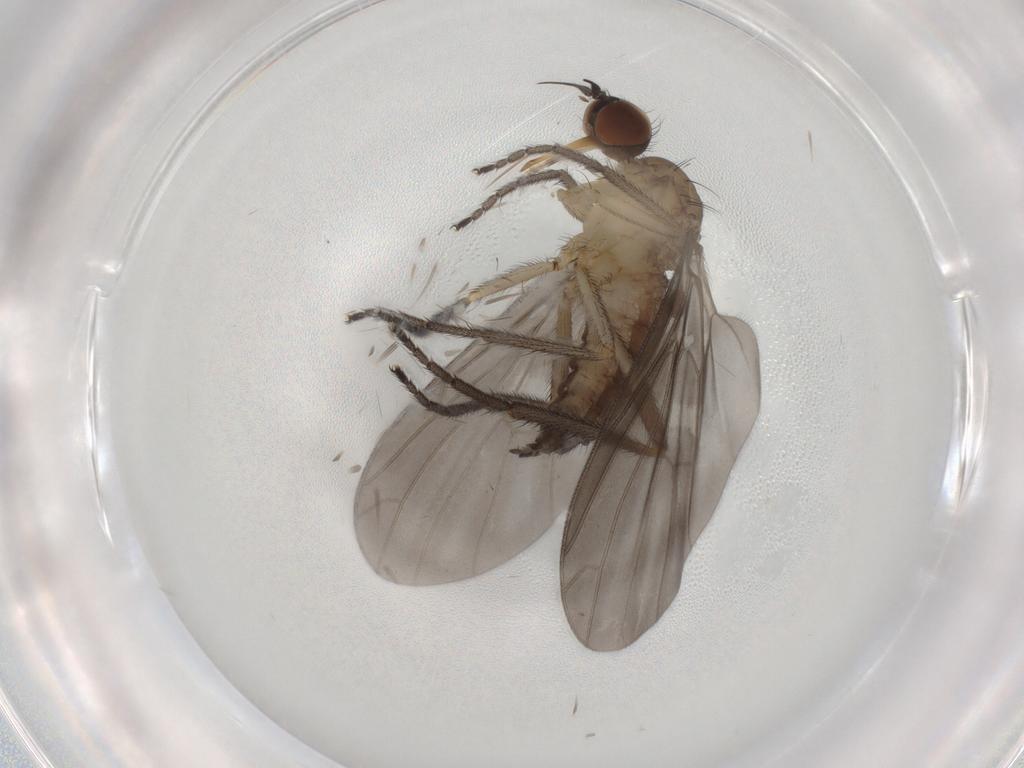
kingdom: Animalia
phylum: Arthropoda
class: Insecta
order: Diptera
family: Empididae
